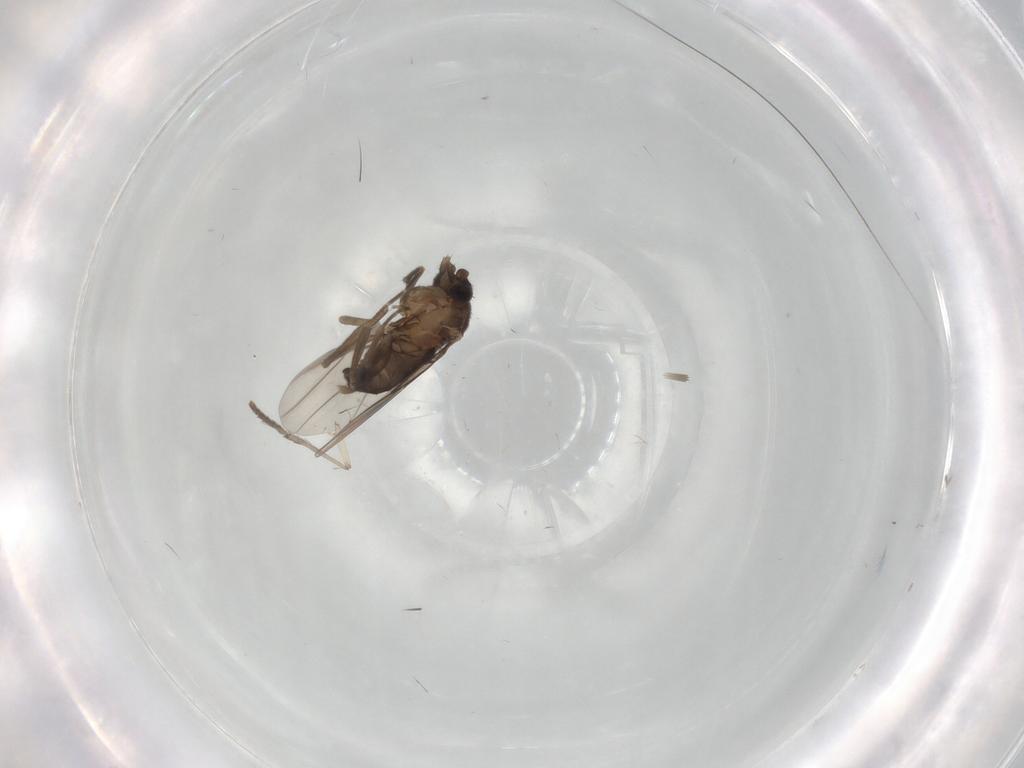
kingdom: Animalia
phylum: Arthropoda
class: Insecta
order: Diptera
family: Psychodidae
